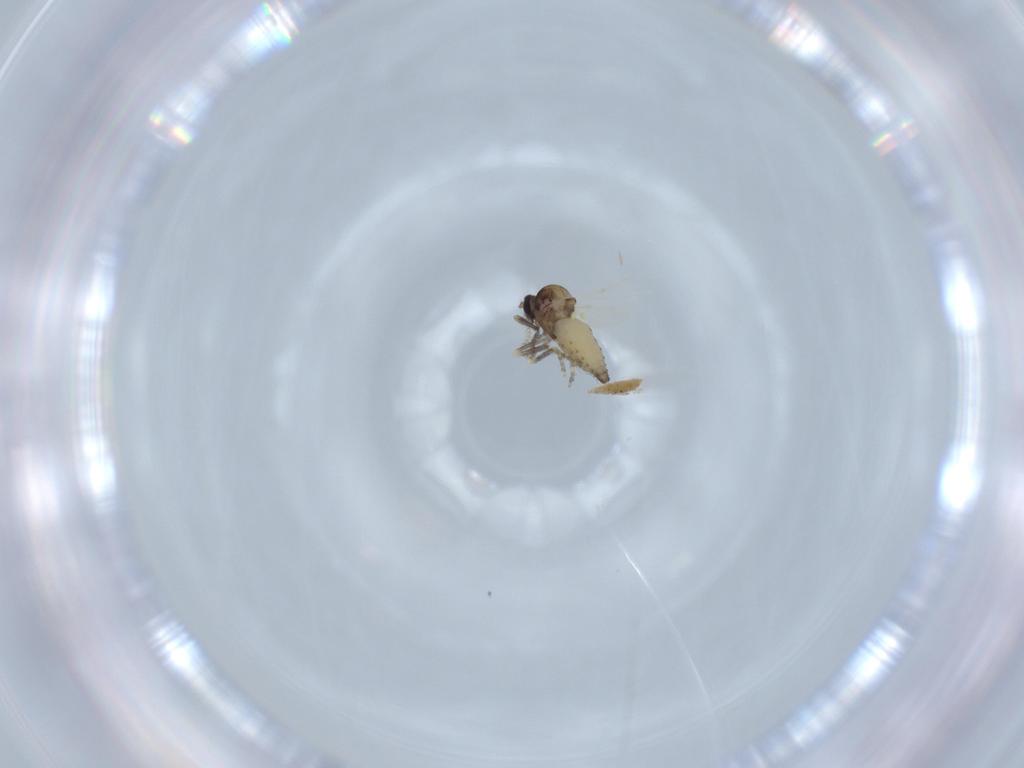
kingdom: Animalia
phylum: Arthropoda
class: Insecta
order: Diptera
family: Ceratopogonidae
